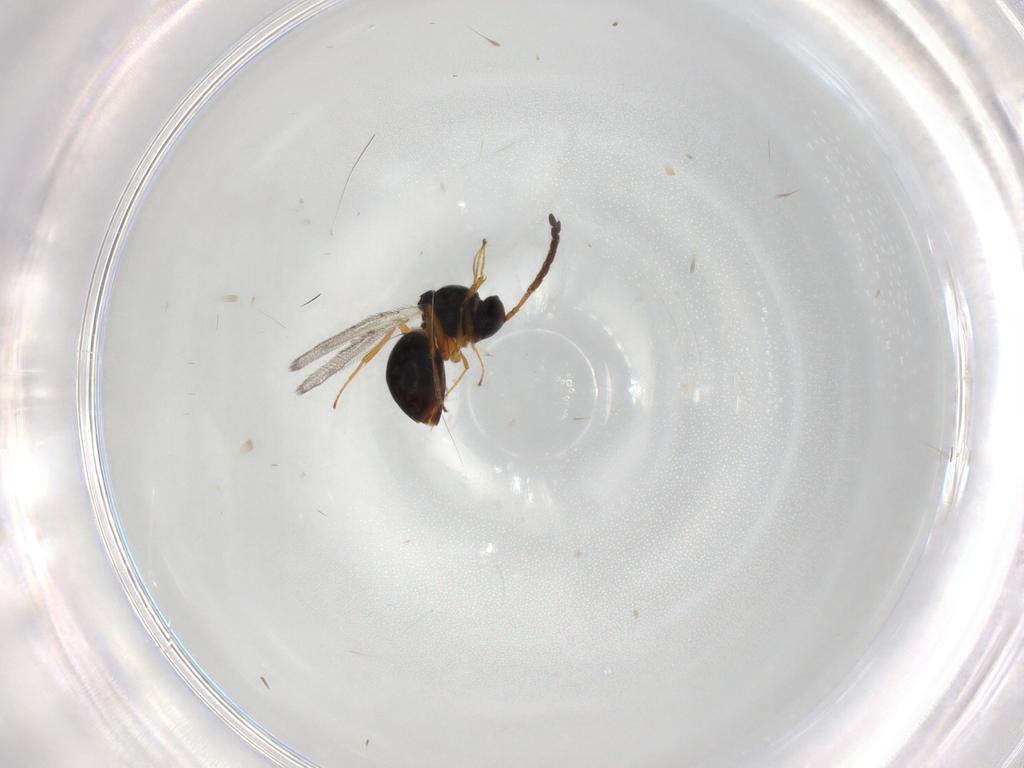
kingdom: Animalia
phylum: Arthropoda
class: Insecta
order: Hymenoptera
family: Figitidae
